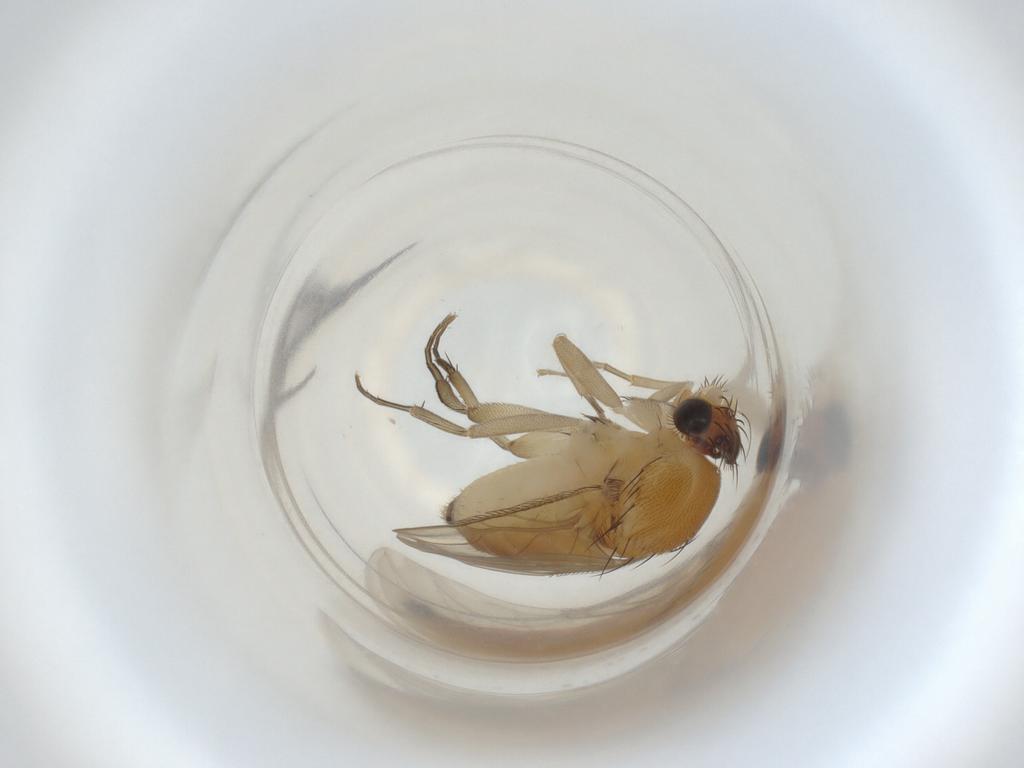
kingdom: Animalia
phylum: Arthropoda
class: Insecta
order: Diptera
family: Phoridae
